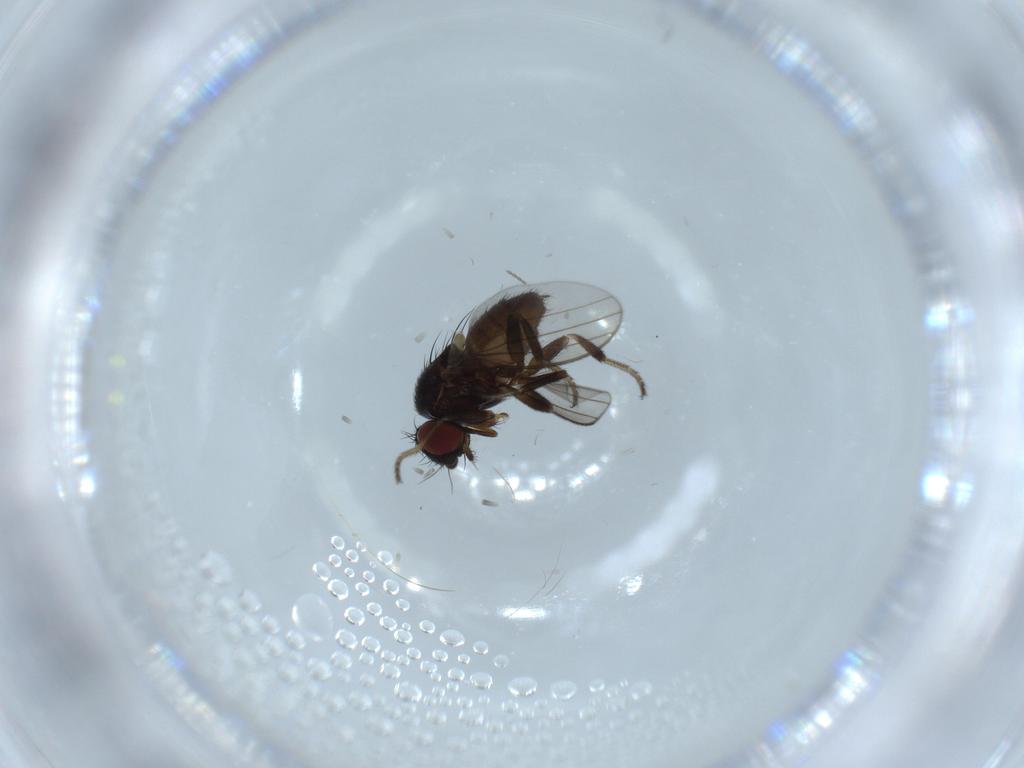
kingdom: Animalia
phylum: Arthropoda
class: Insecta
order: Diptera
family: Milichiidae
